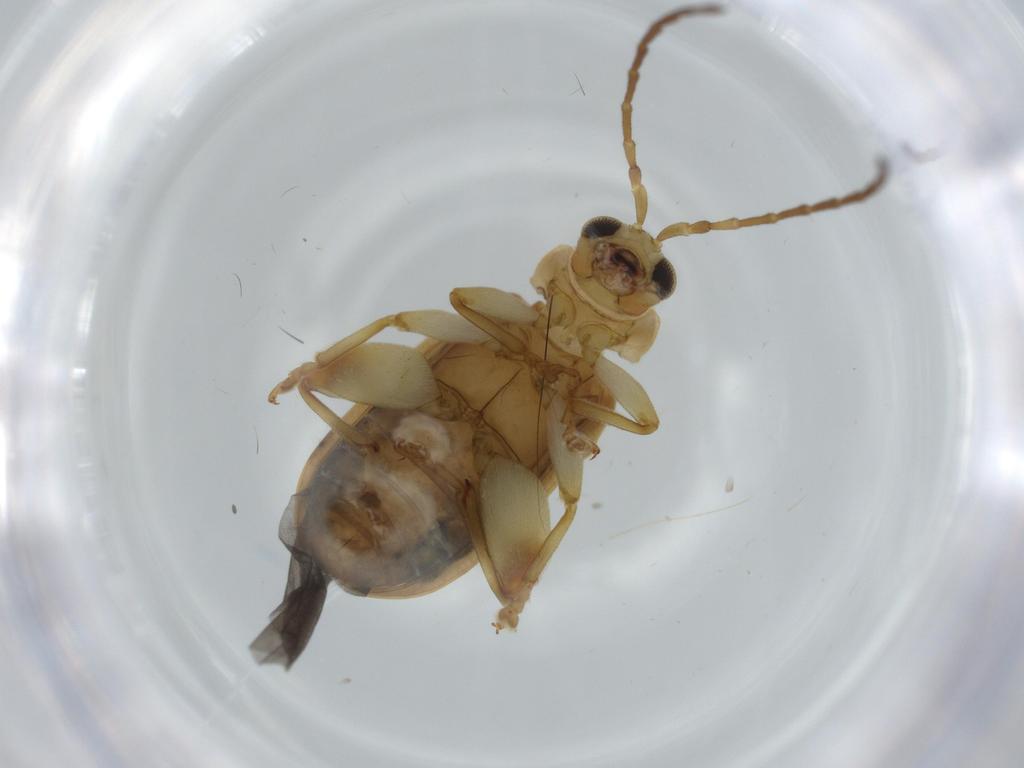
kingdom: Animalia
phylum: Arthropoda
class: Insecta
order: Coleoptera
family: Chrysomelidae
